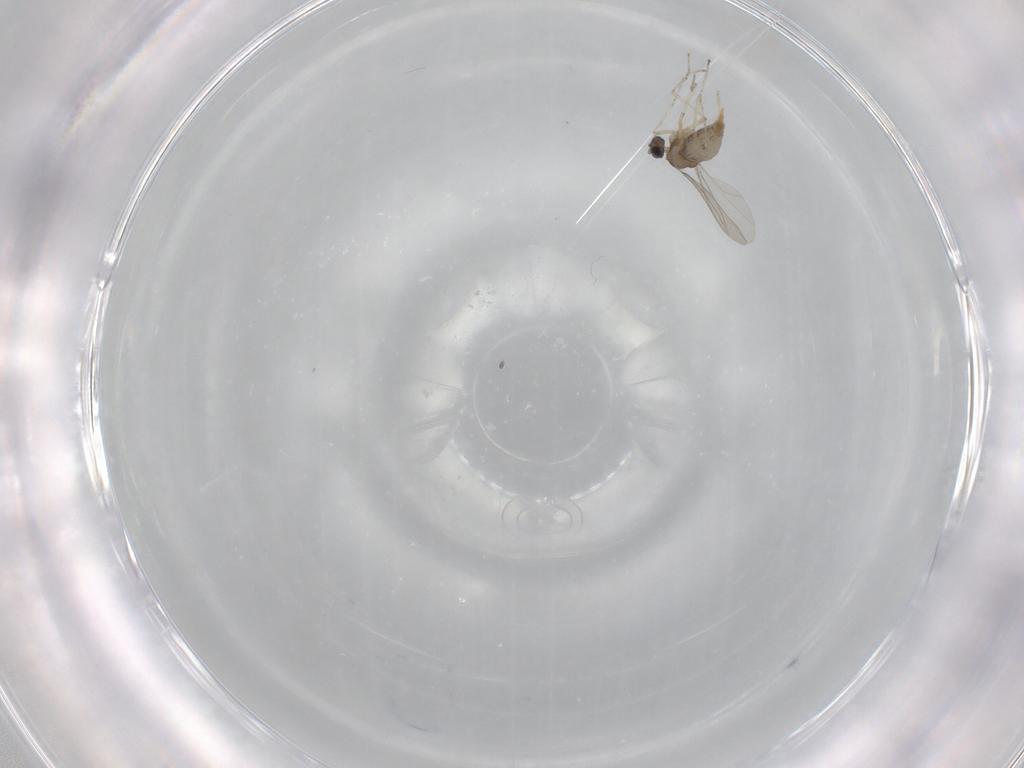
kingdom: Animalia
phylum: Arthropoda
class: Insecta
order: Diptera
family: Cecidomyiidae
